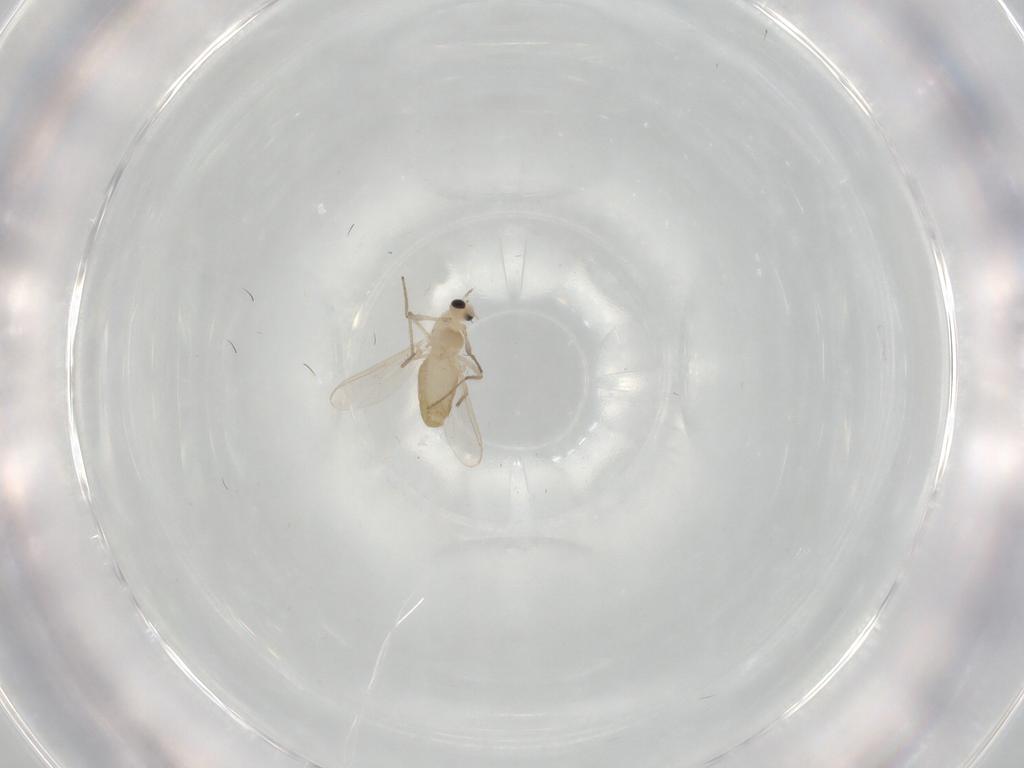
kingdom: Animalia
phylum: Arthropoda
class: Insecta
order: Diptera
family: Chironomidae
